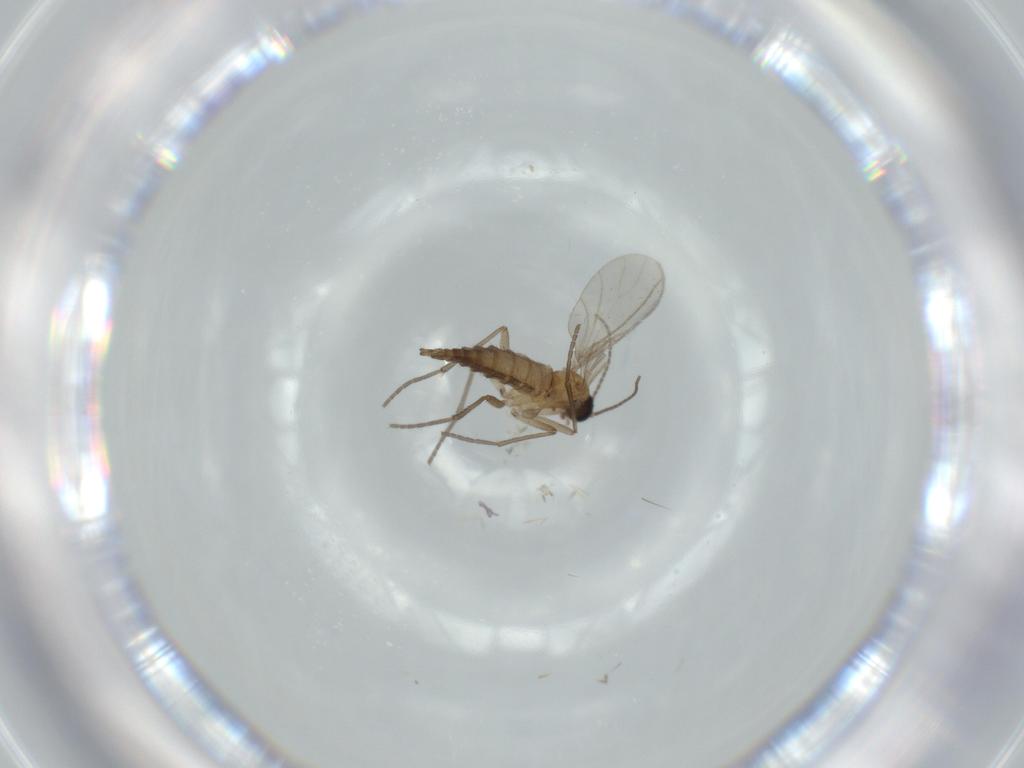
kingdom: Animalia
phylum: Arthropoda
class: Insecta
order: Diptera
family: Sciaridae
